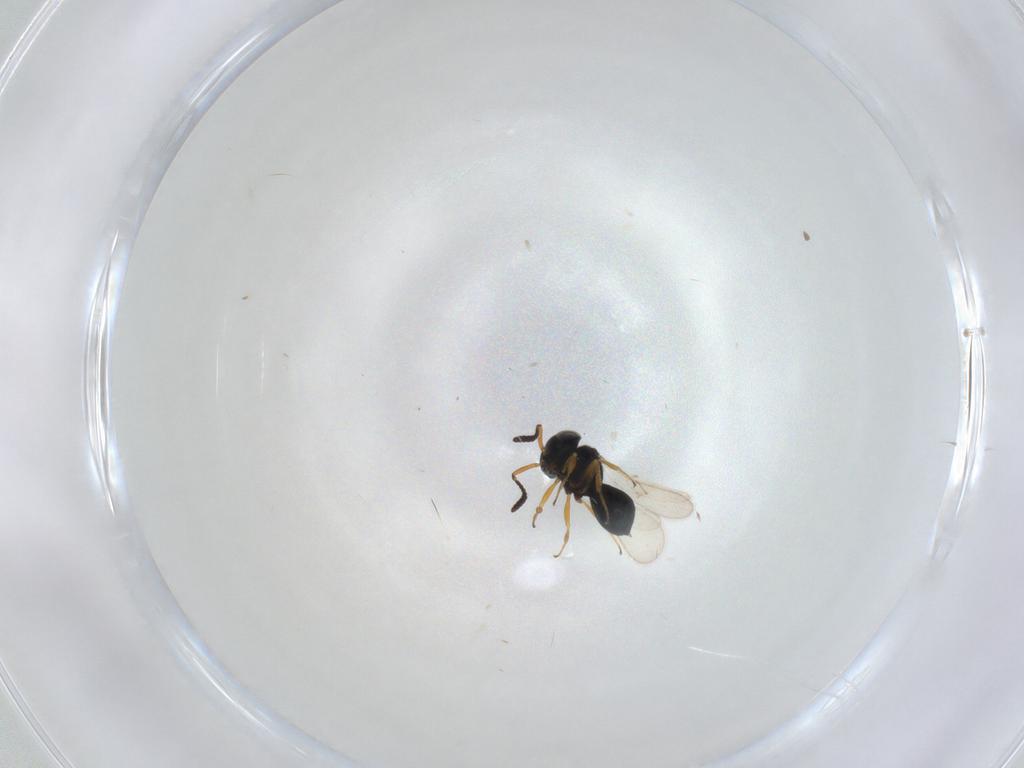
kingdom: Animalia
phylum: Arthropoda
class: Insecta
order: Hymenoptera
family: Scelionidae
